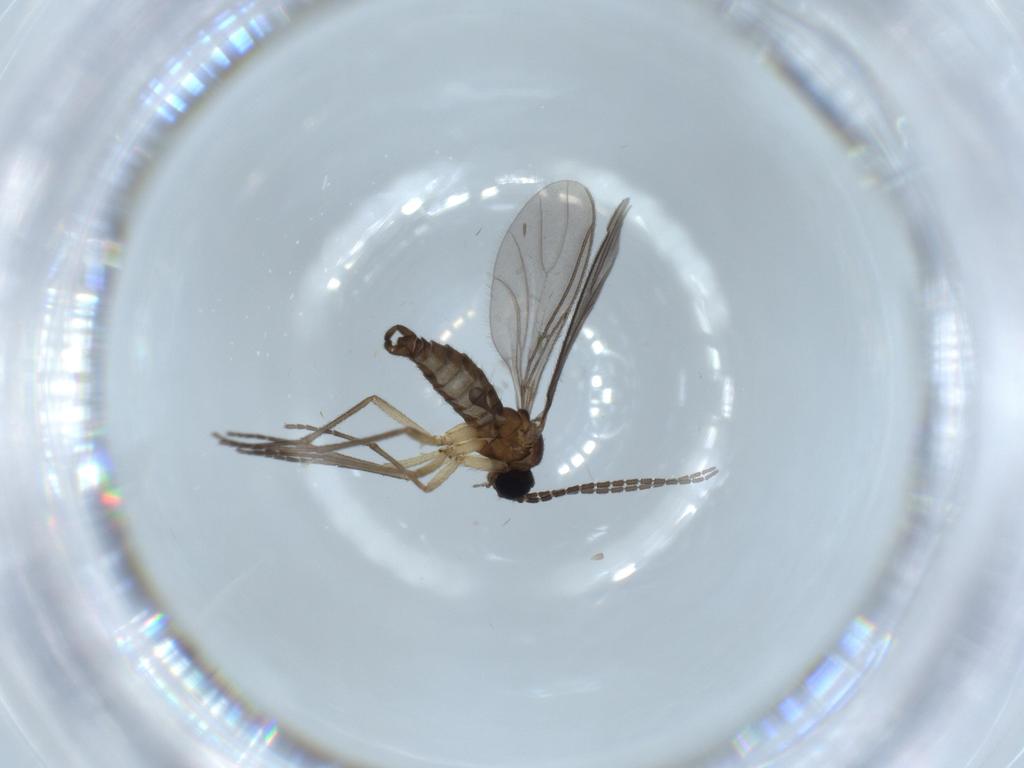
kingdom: Animalia
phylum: Arthropoda
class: Insecta
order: Diptera
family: Sciaridae
